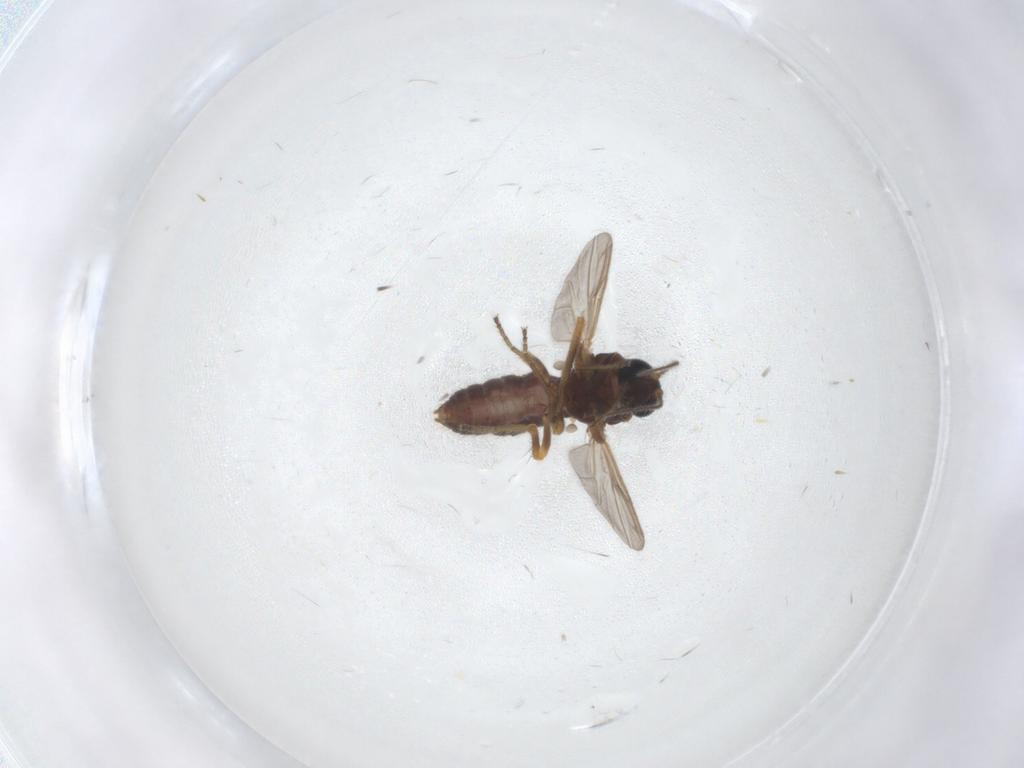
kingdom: Animalia
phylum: Arthropoda
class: Insecta
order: Diptera
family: Ceratopogonidae
